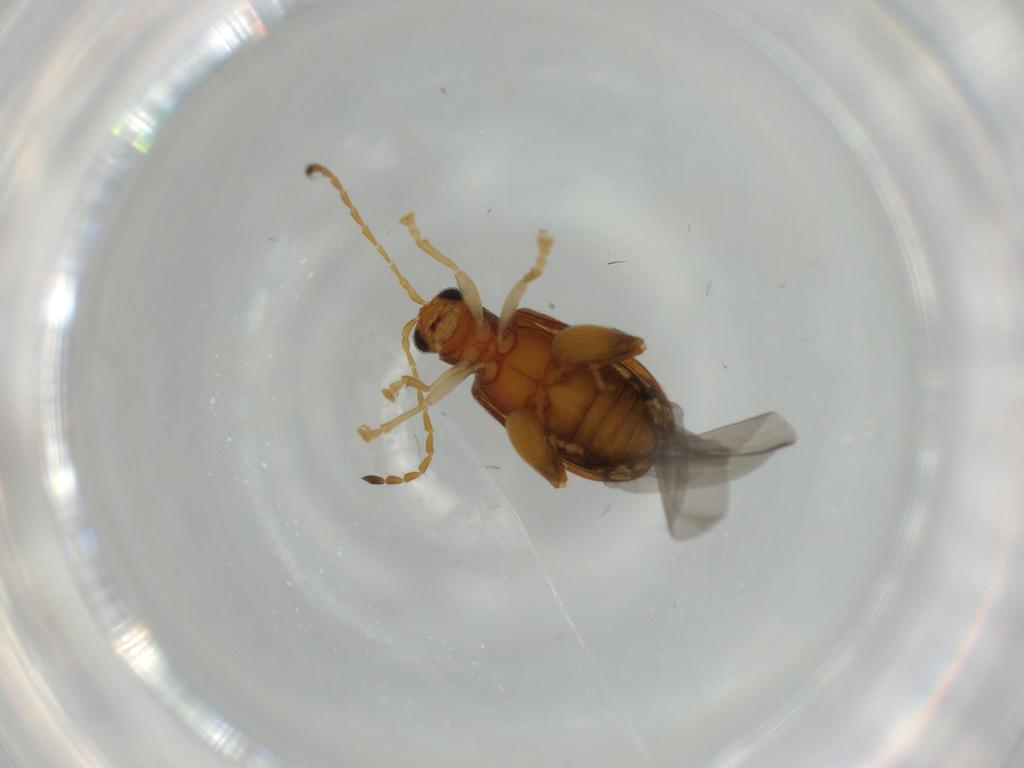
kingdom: Animalia
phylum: Arthropoda
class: Insecta
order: Coleoptera
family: Chrysomelidae
